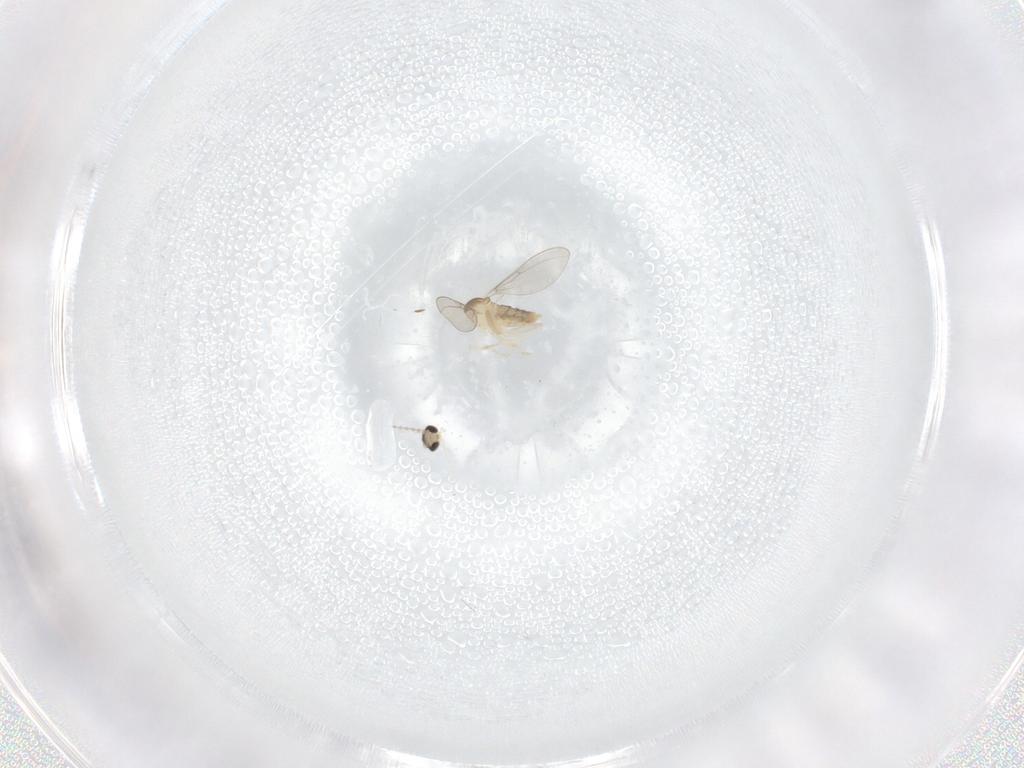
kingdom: Animalia
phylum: Arthropoda
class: Insecta
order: Diptera
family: Cecidomyiidae
